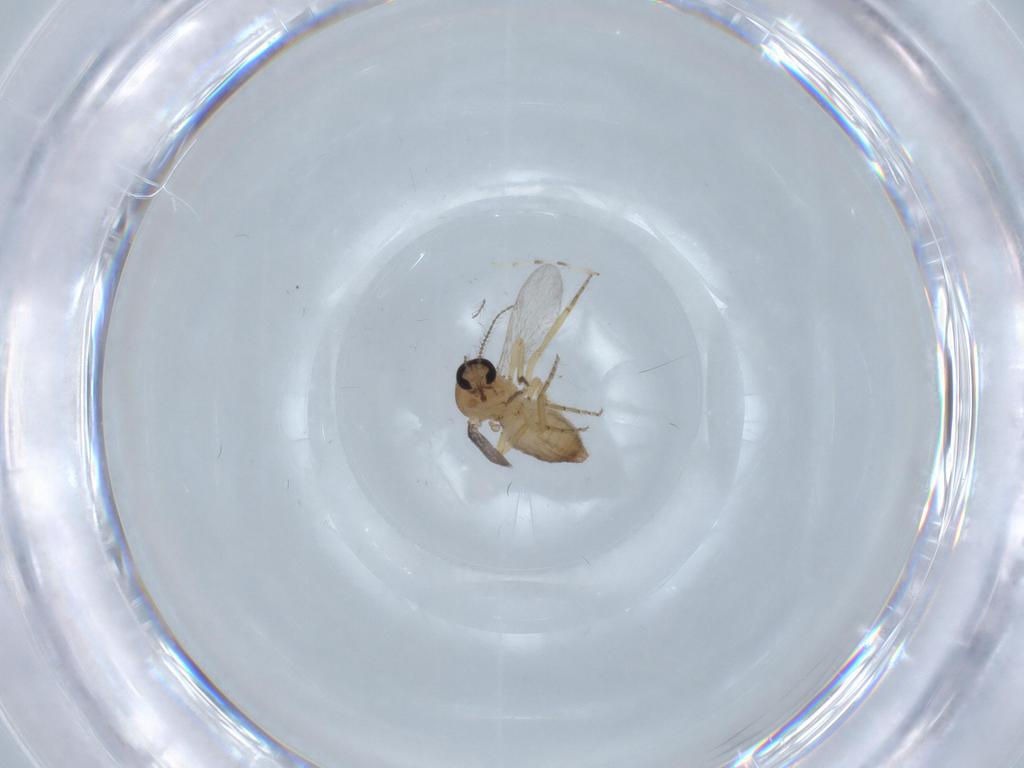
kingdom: Animalia
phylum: Arthropoda
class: Insecta
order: Diptera
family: Ceratopogonidae
